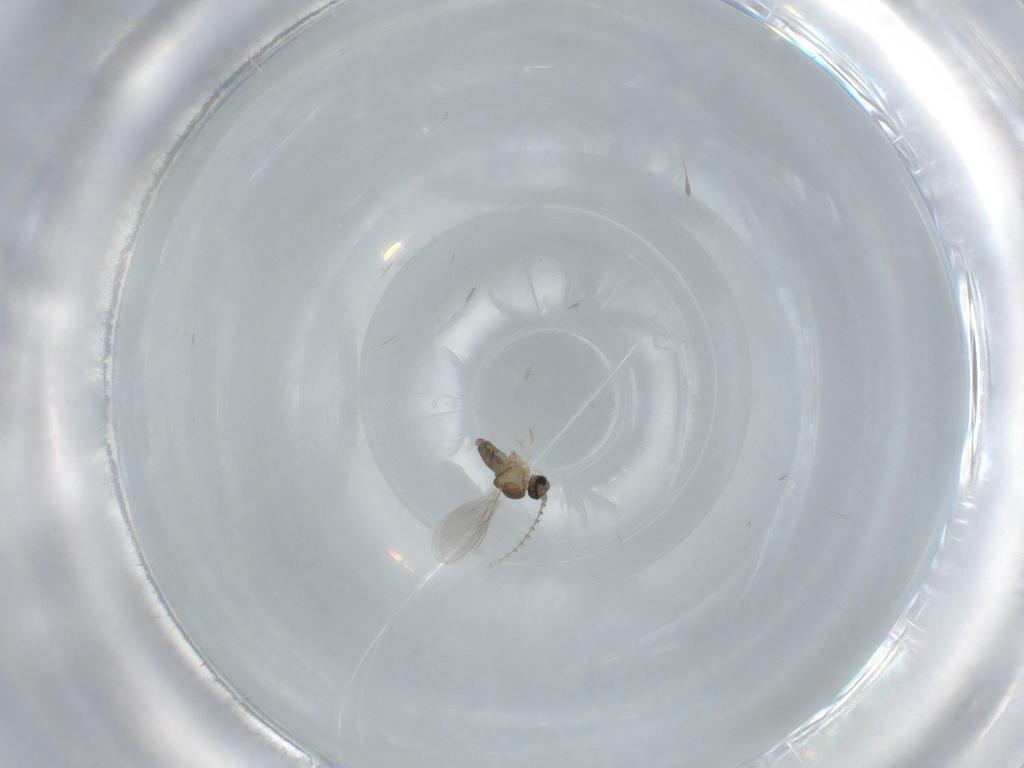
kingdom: Animalia
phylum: Arthropoda
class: Insecta
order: Diptera
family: Chironomidae
